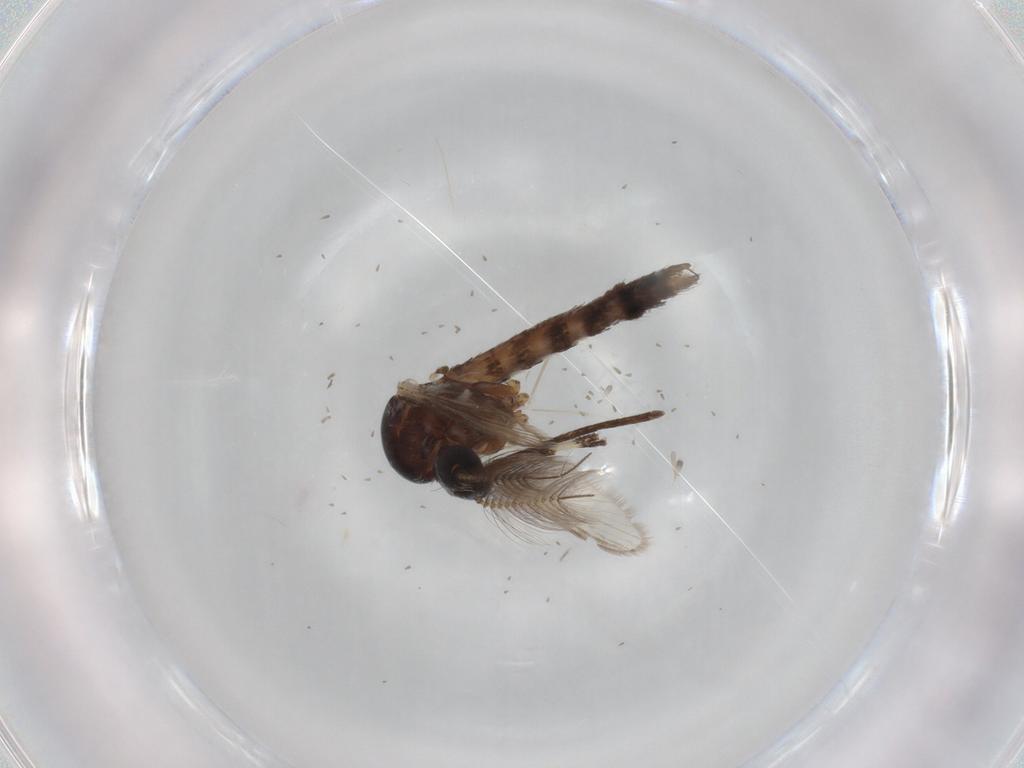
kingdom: Animalia
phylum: Arthropoda
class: Insecta
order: Diptera
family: Culicidae
